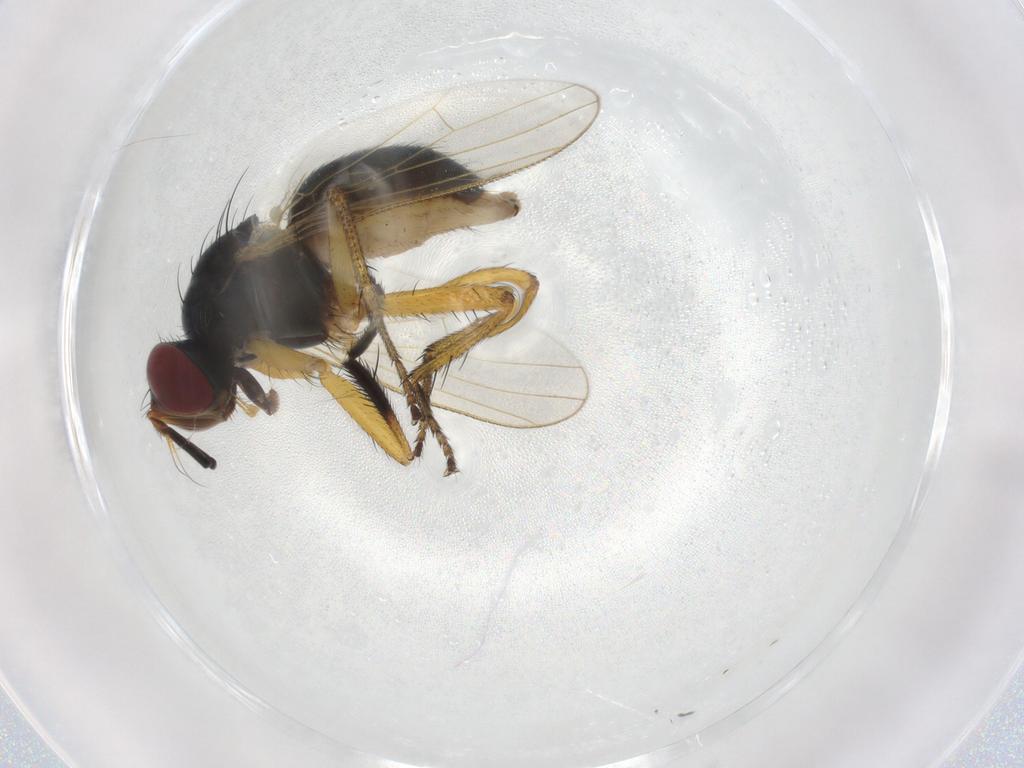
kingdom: Animalia
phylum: Arthropoda
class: Insecta
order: Diptera
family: Sciaridae
